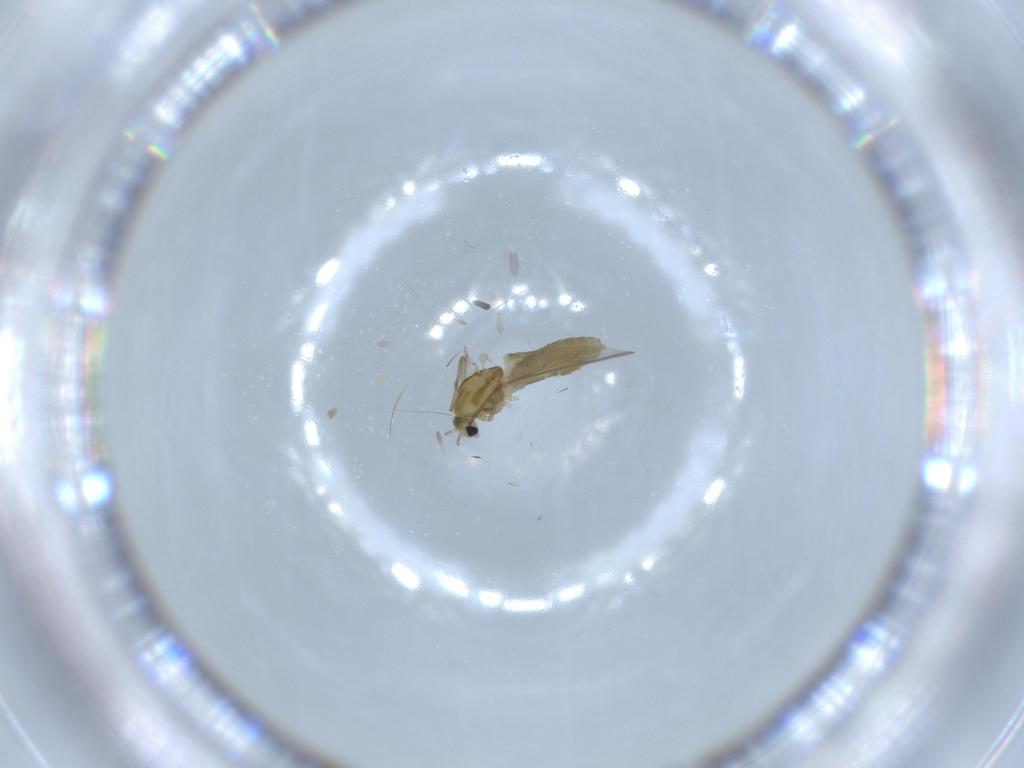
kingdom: Animalia
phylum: Arthropoda
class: Insecta
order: Diptera
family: Chironomidae
